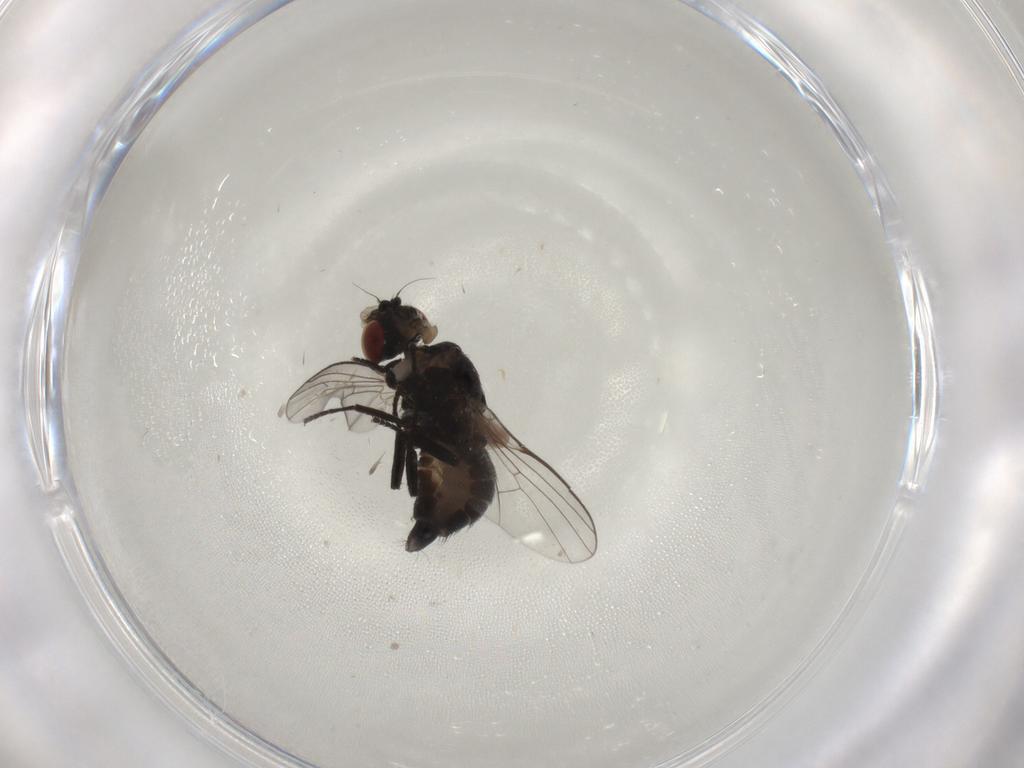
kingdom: Animalia
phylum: Arthropoda
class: Insecta
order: Diptera
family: Agromyzidae
